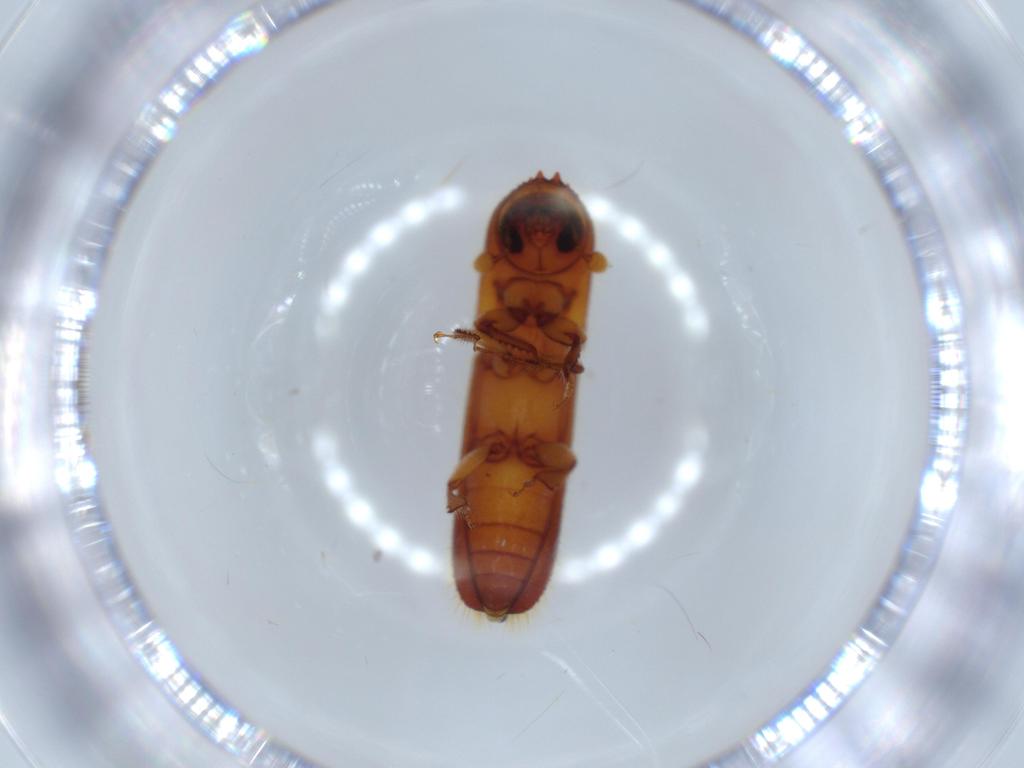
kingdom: Animalia
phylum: Arthropoda
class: Insecta
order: Coleoptera
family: Curculionidae
